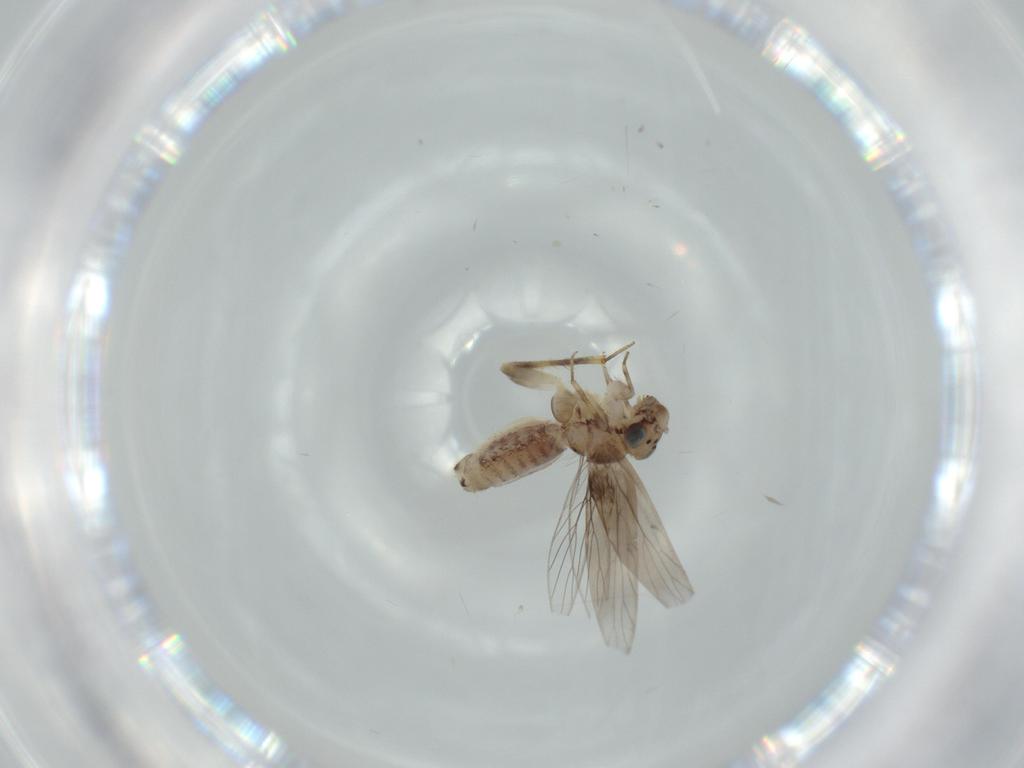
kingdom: Animalia
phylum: Arthropoda
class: Insecta
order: Psocodea
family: Lepidopsocidae
